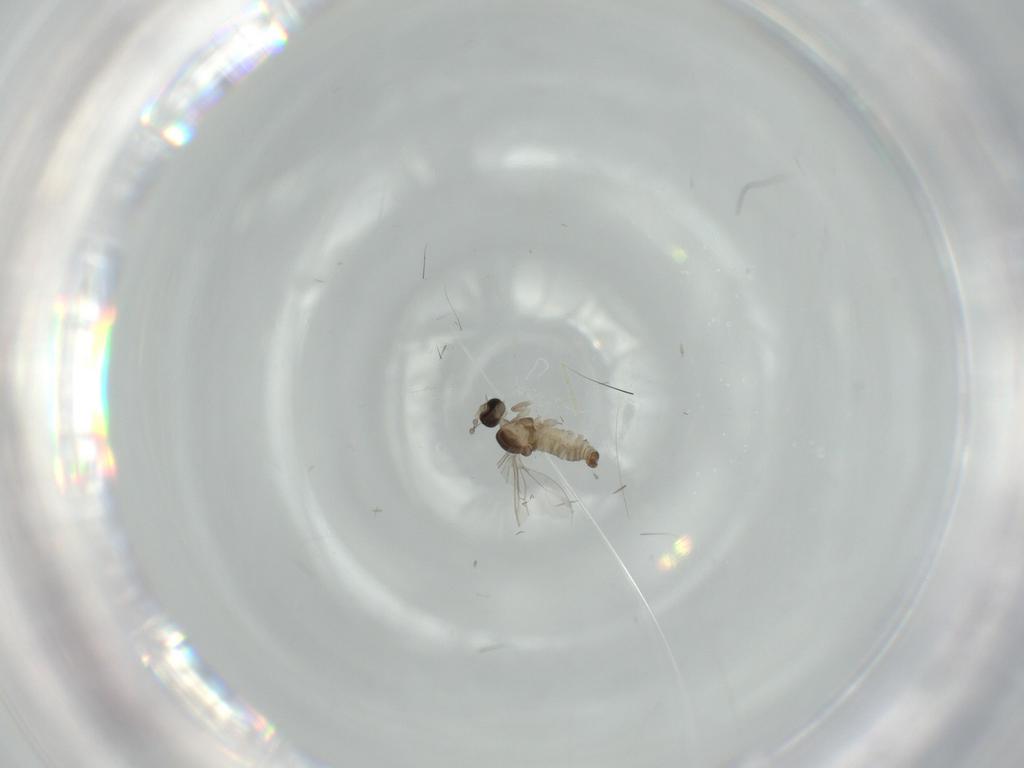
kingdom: Animalia
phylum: Arthropoda
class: Insecta
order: Diptera
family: Cecidomyiidae
